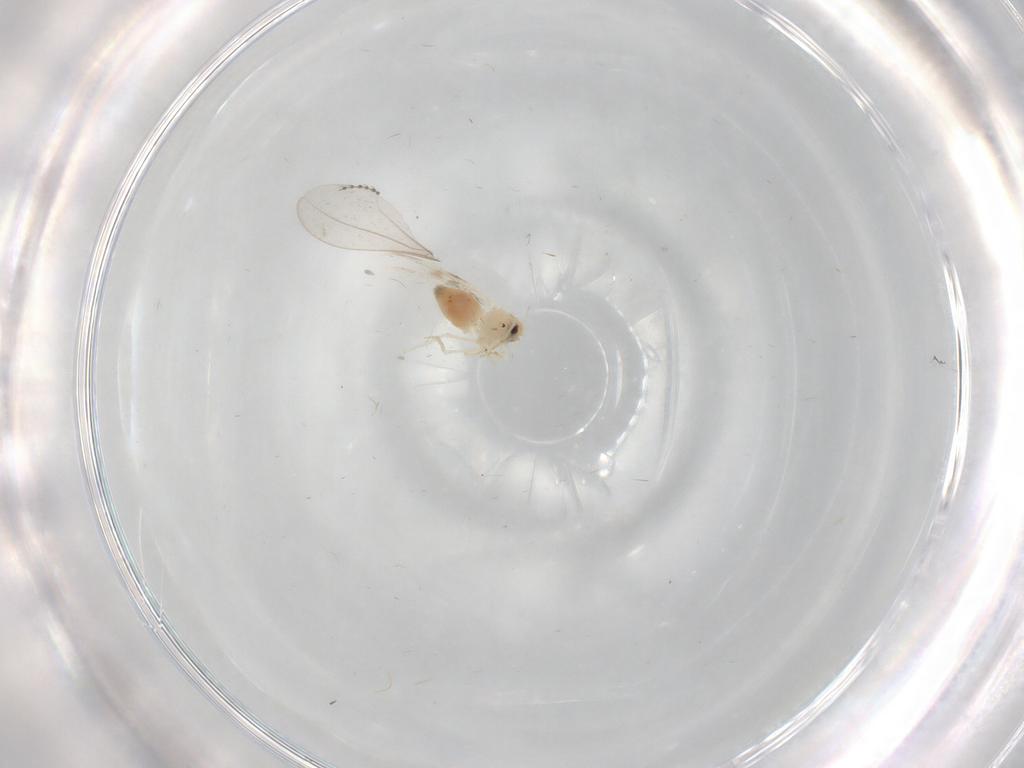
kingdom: Animalia
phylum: Arthropoda
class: Insecta
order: Hemiptera
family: Aleyrodidae
